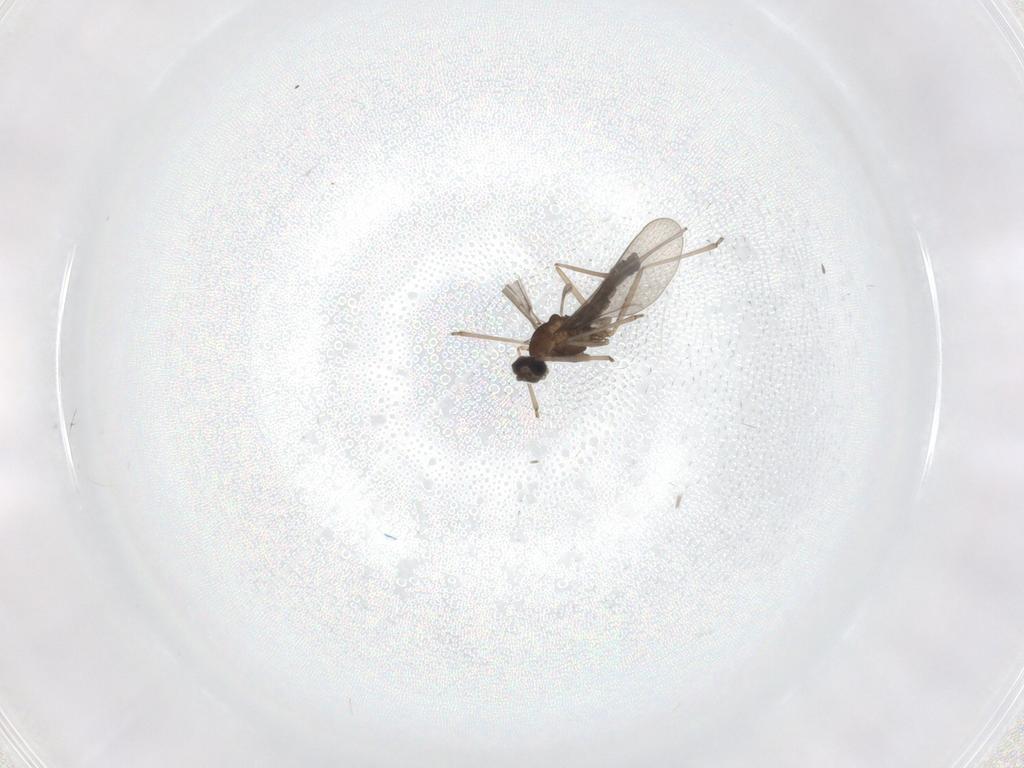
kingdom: Animalia
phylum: Arthropoda
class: Insecta
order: Diptera
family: Cecidomyiidae
